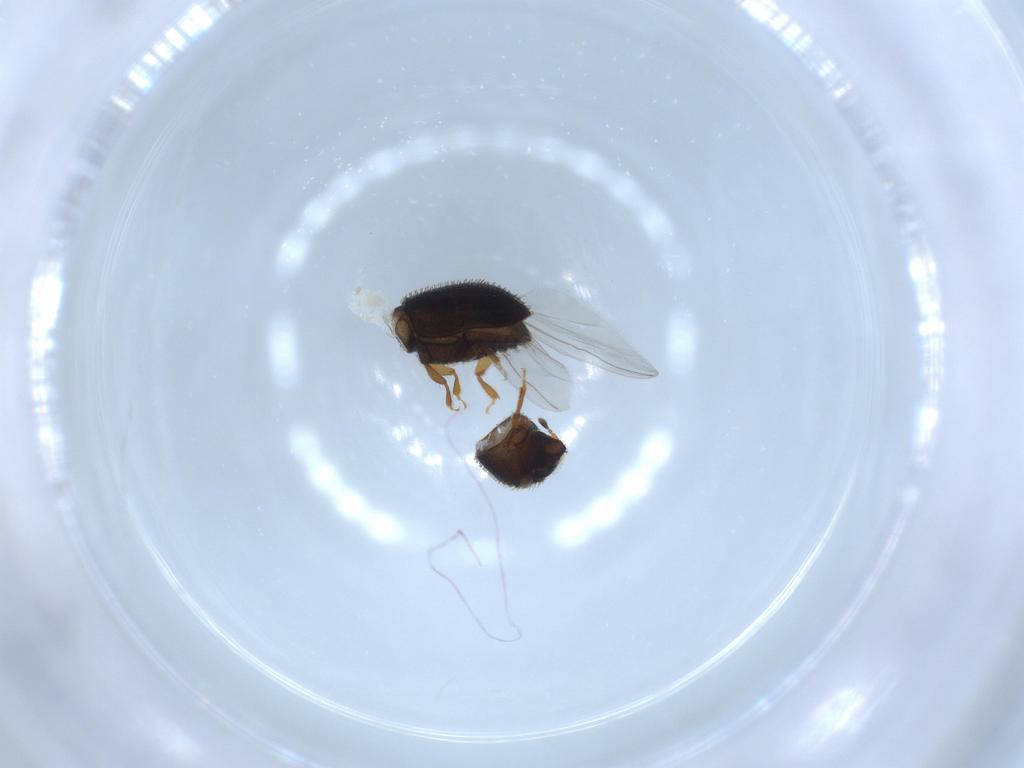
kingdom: Animalia
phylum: Arthropoda
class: Insecta
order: Coleoptera
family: Curculionidae
